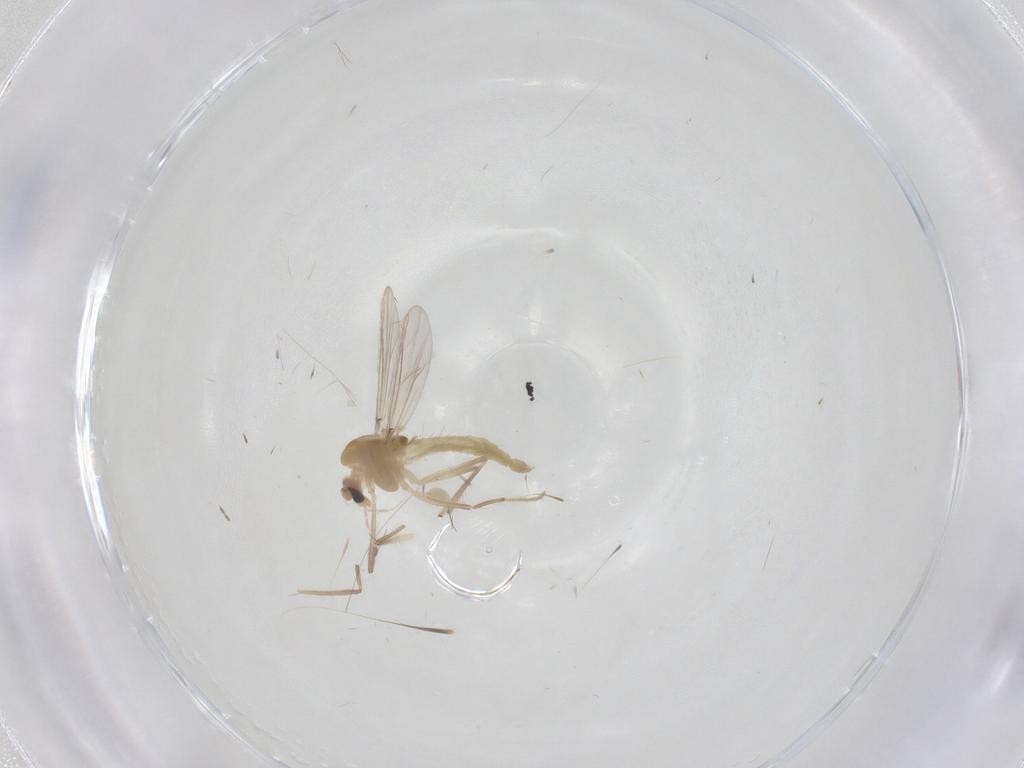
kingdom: Animalia
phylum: Arthropoda
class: Insecta
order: Diptera
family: Chironomidae
